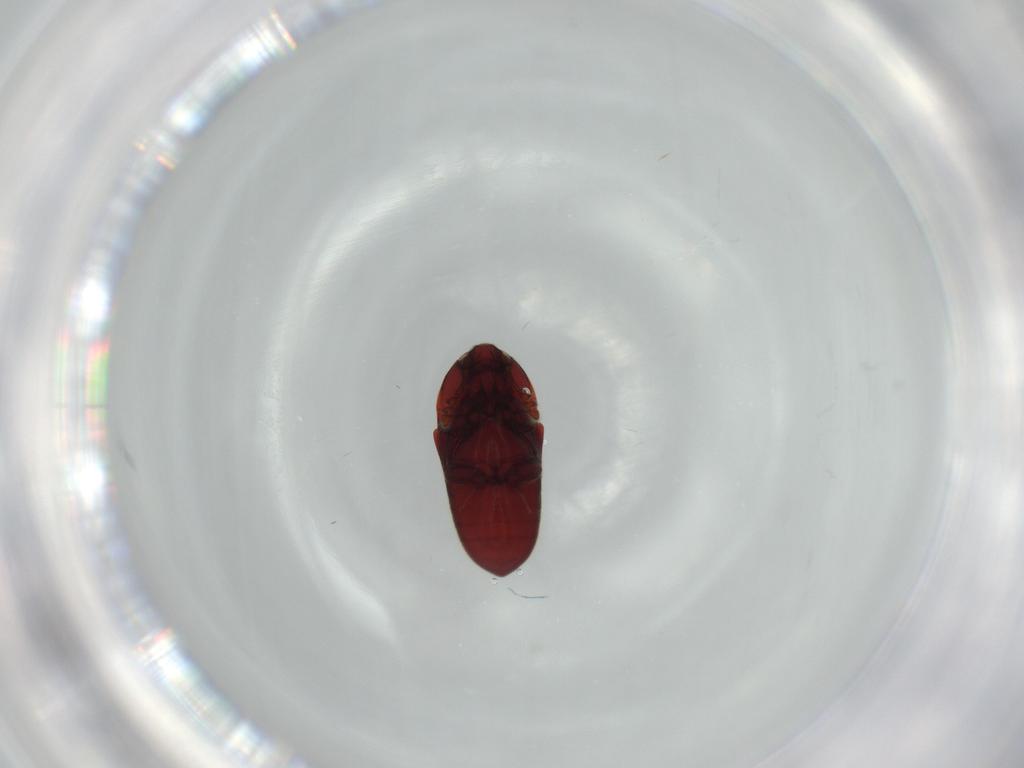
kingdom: Animalia
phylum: Arthropoda
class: Insecta
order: Coleoptera
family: Throscidae
